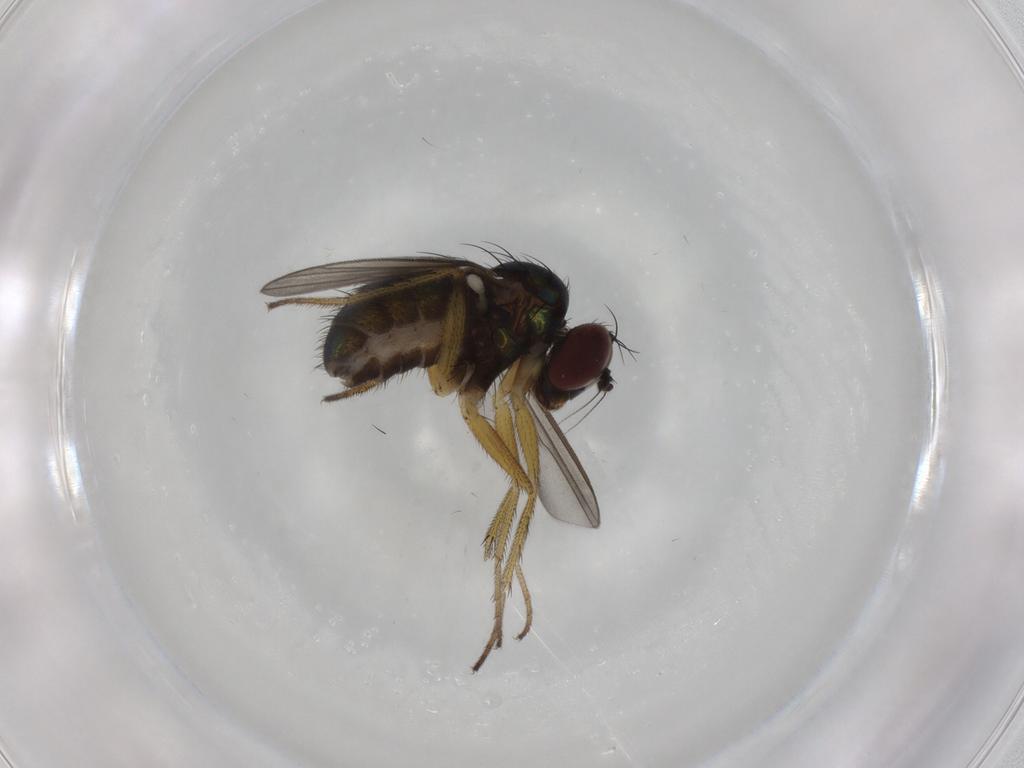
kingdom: Animalia
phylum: Arthropoda
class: Insecta
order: Diptera
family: Dolichopodidae
